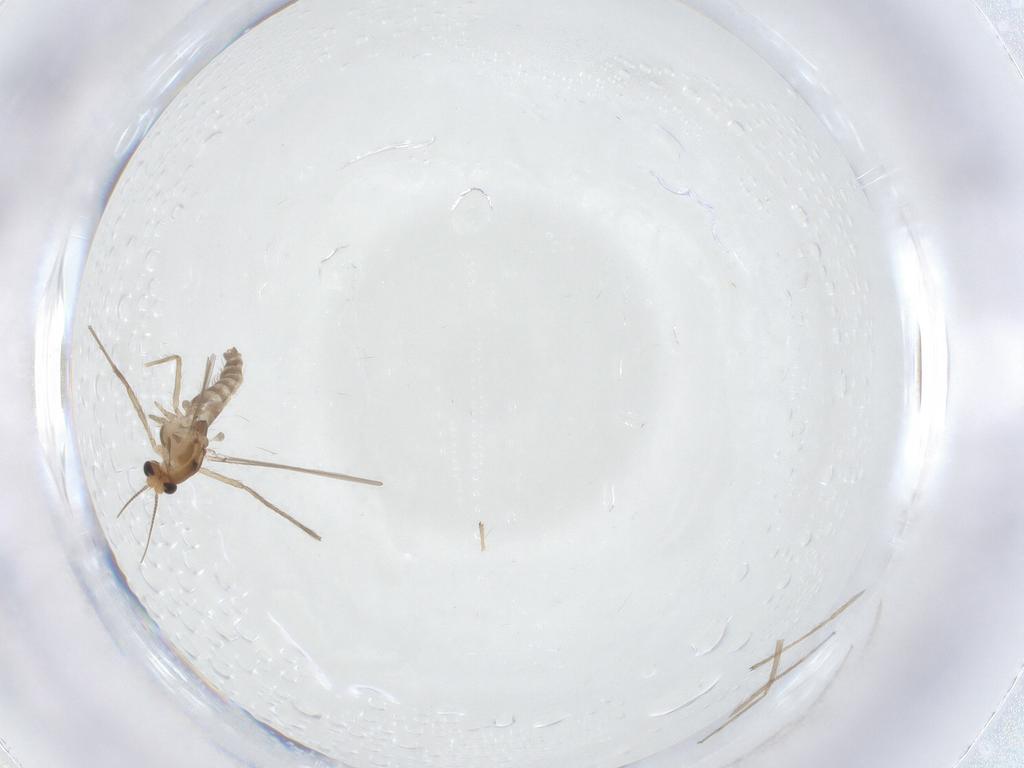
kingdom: Animalia
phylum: Arthropoda
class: Insecta
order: Diptera
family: Chironomidae
